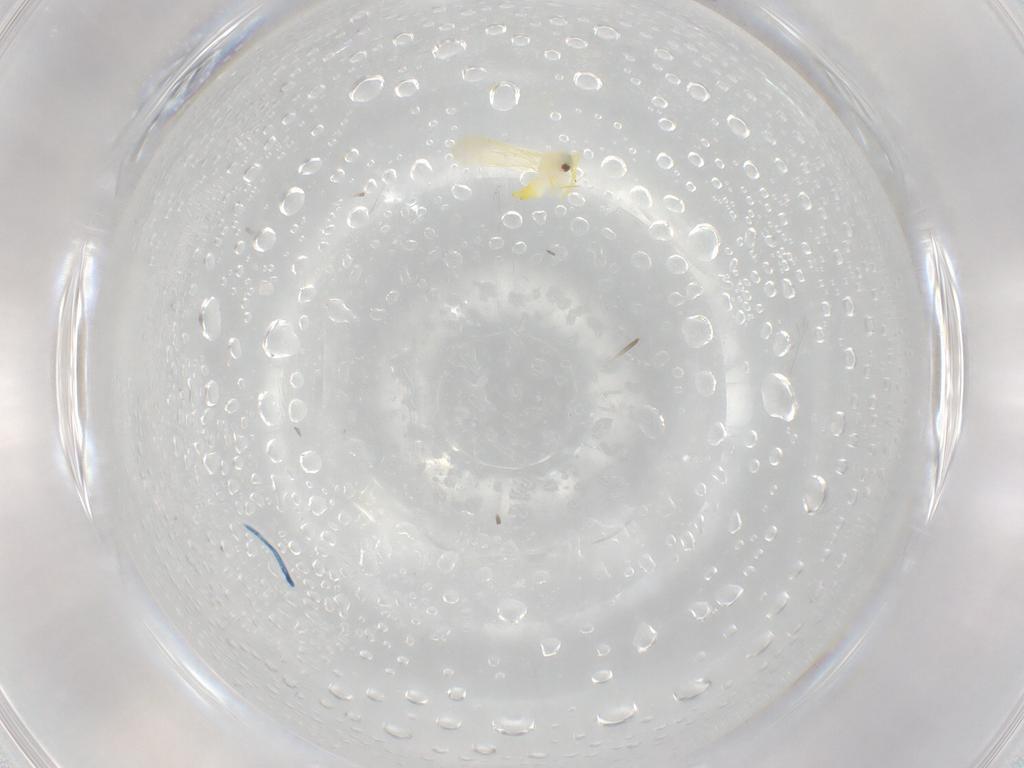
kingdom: Animalia
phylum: Arthropoda
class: Insecta
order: Hemiptera
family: Aleyrodidae
